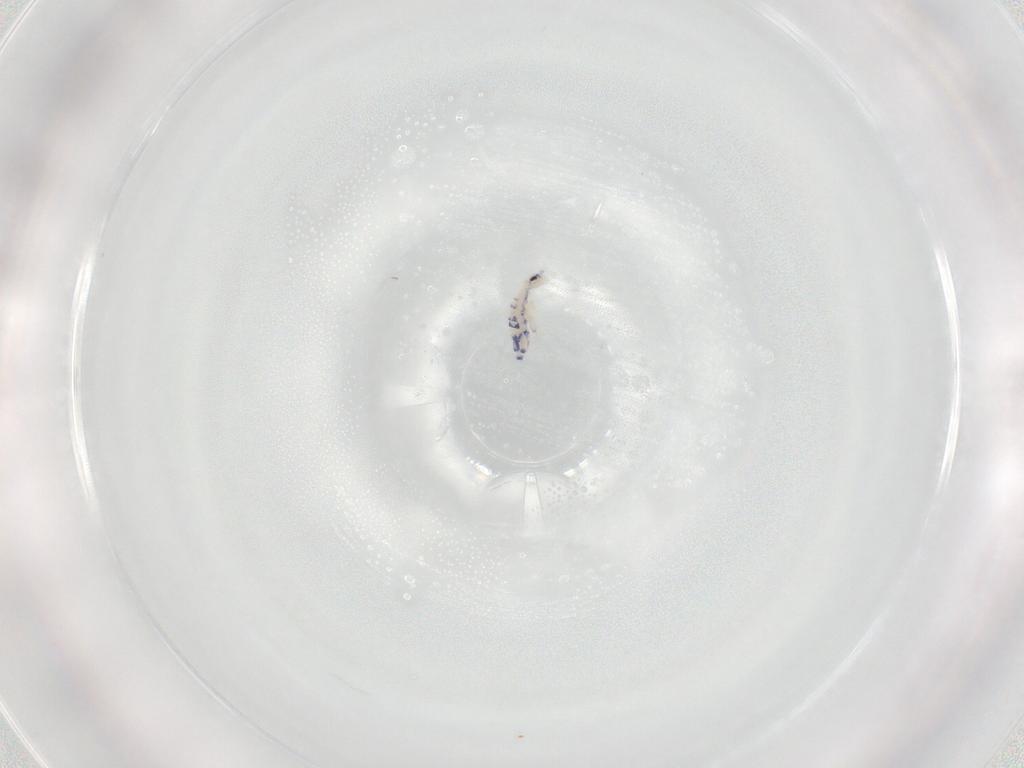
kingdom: Animalia
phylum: Arthropoda
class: Collembola
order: Entomobryomorpha
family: Entomobryidae
